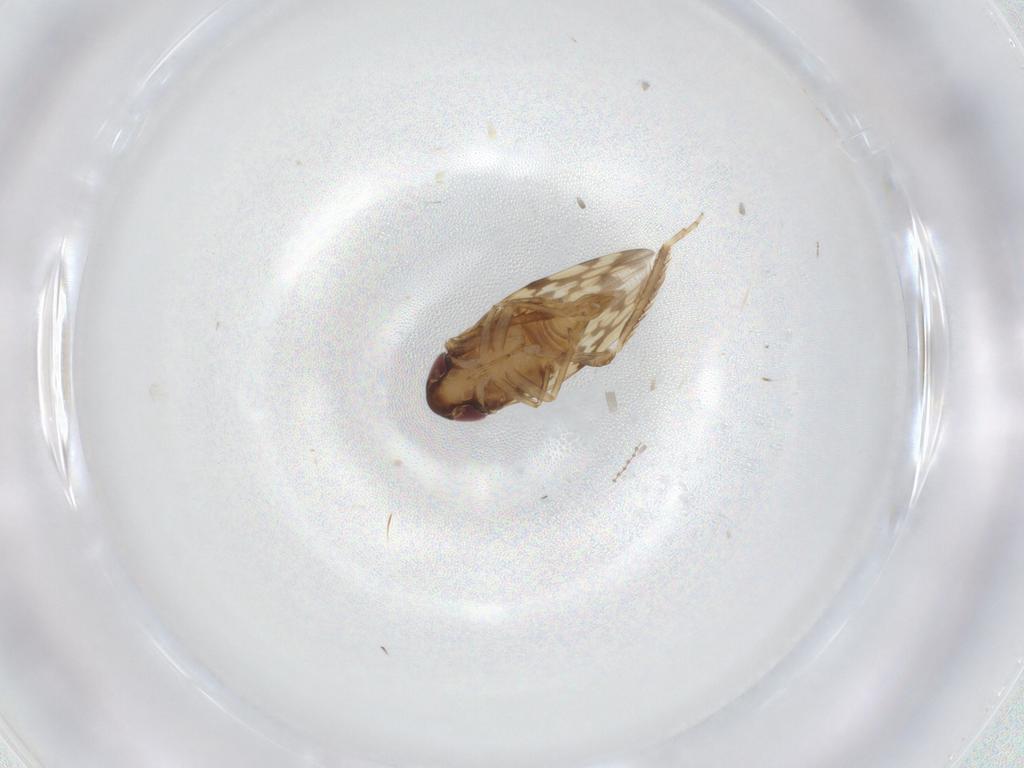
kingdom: Animalia
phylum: Arthropoda
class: Insecta
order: Hemiptera
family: Cicadellidae
